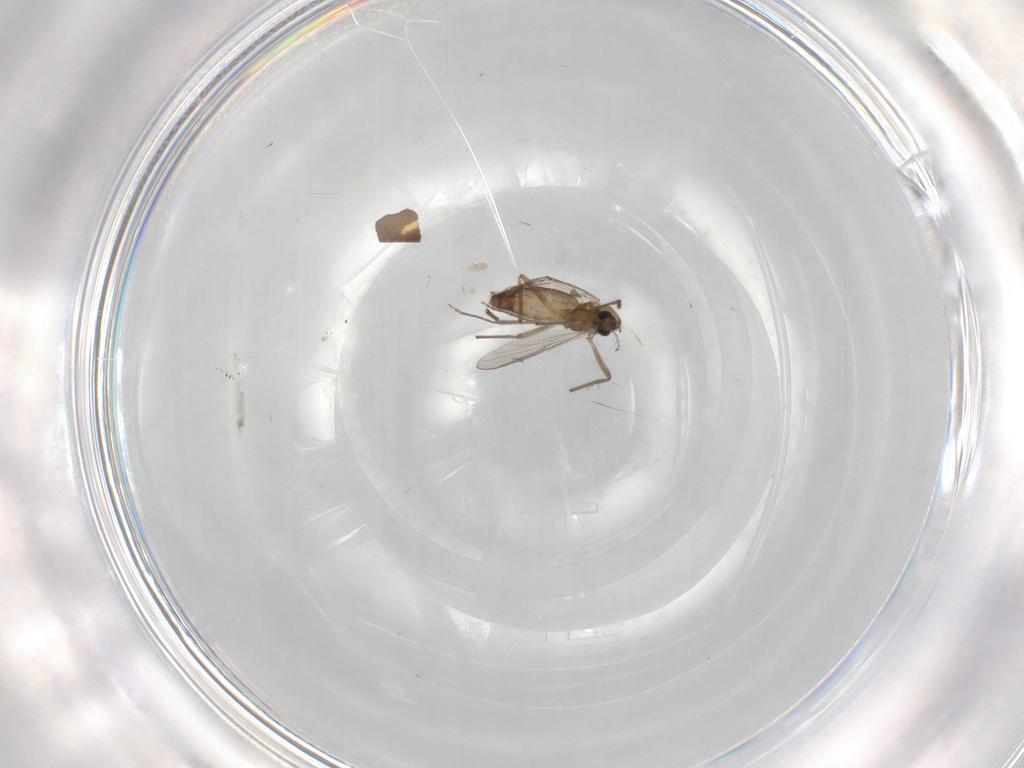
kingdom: Animalia
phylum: Arthropoda
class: Insecta
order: Diptera
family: Chironomidae
